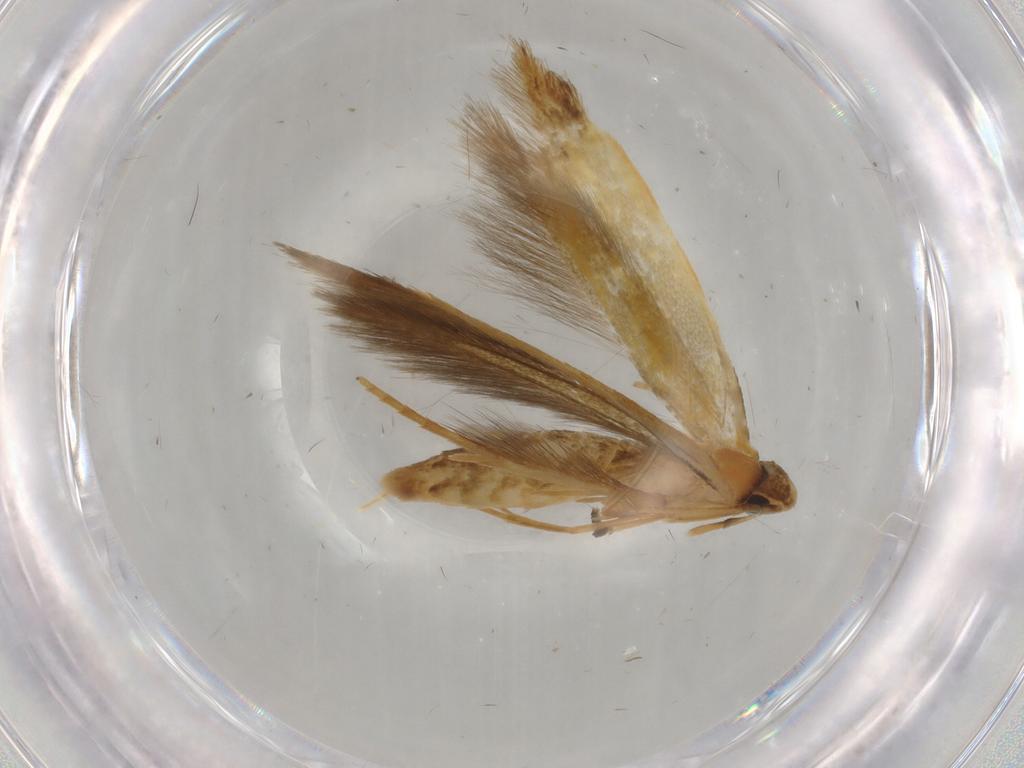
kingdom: Animalia
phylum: Arthropoda
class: Insecta
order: Lepidoptera
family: Tineidae
